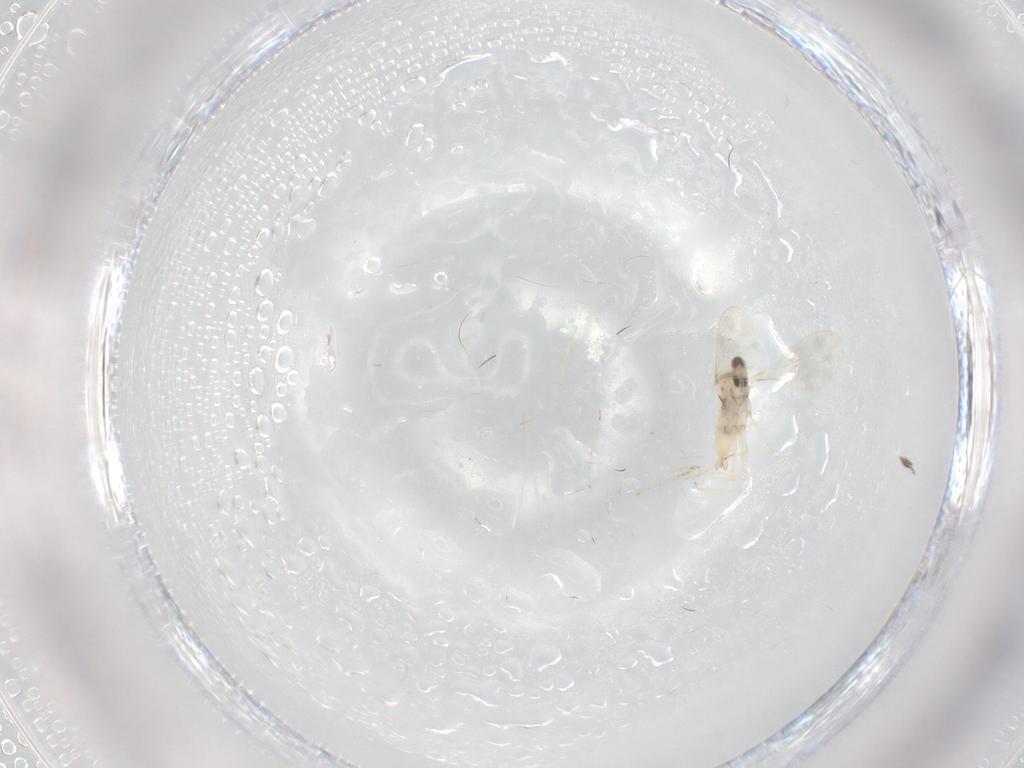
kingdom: Animalia
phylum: Arthropoda
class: Insecta
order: Diptera
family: Cecidomyiidae
